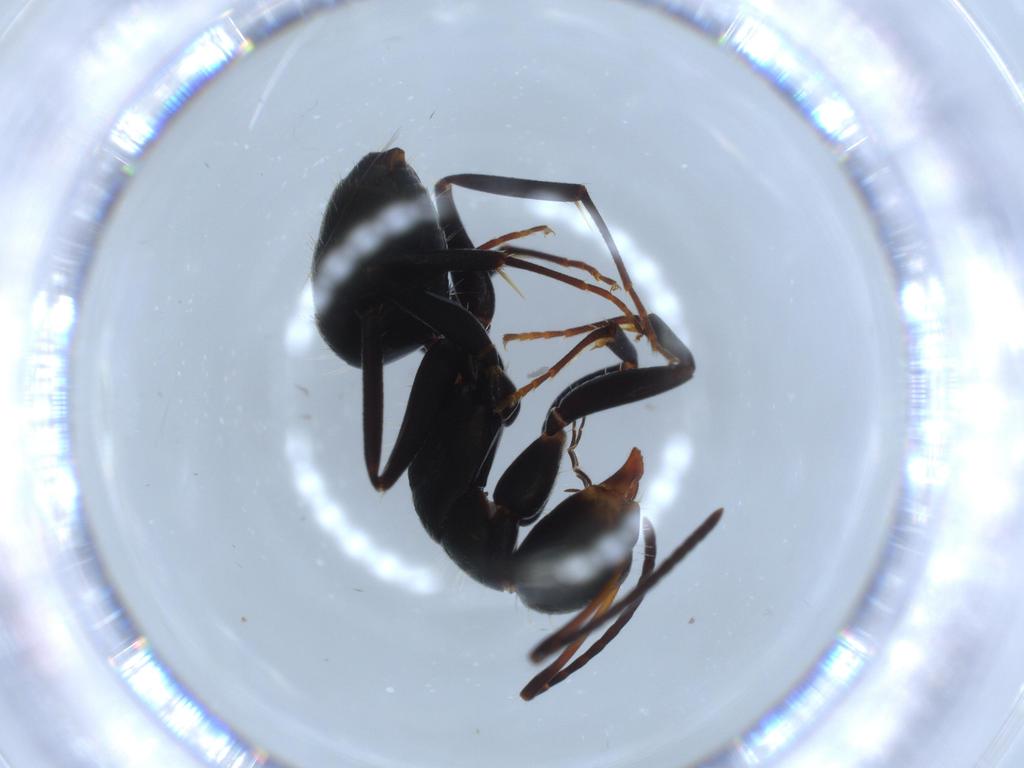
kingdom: Animalia
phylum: Arthropoda
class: Insecta
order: Hymenoptera
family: Formicidae
